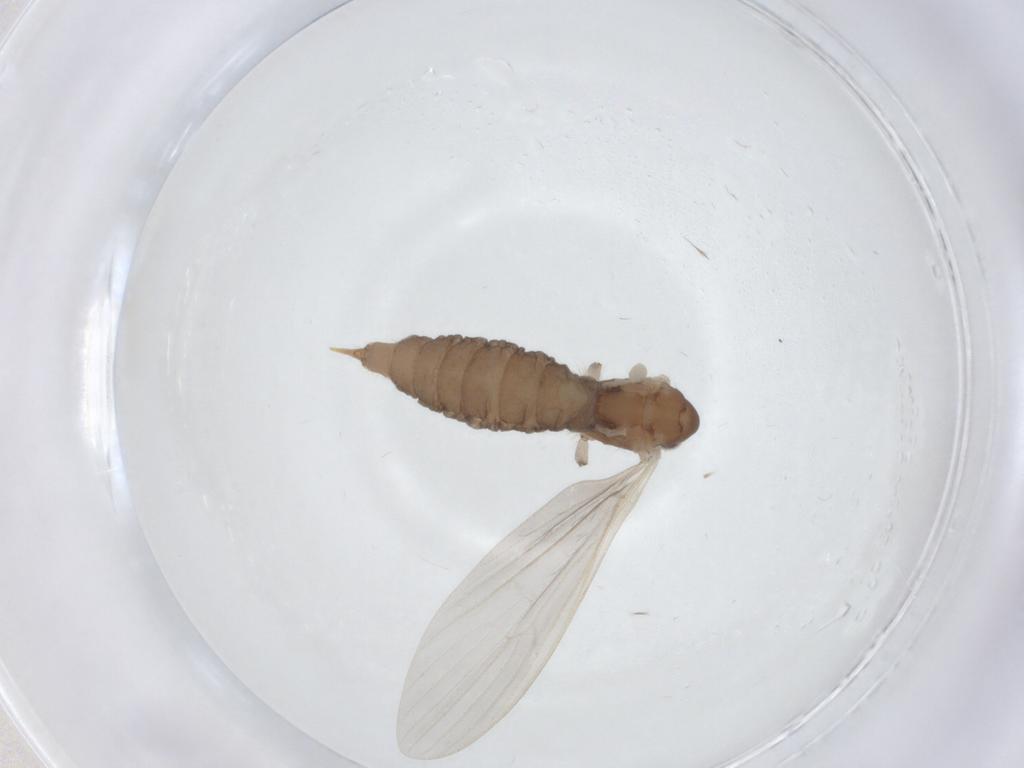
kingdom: Animalia
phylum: Arthropoda
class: Insecta
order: Diptera
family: Limoniidae
